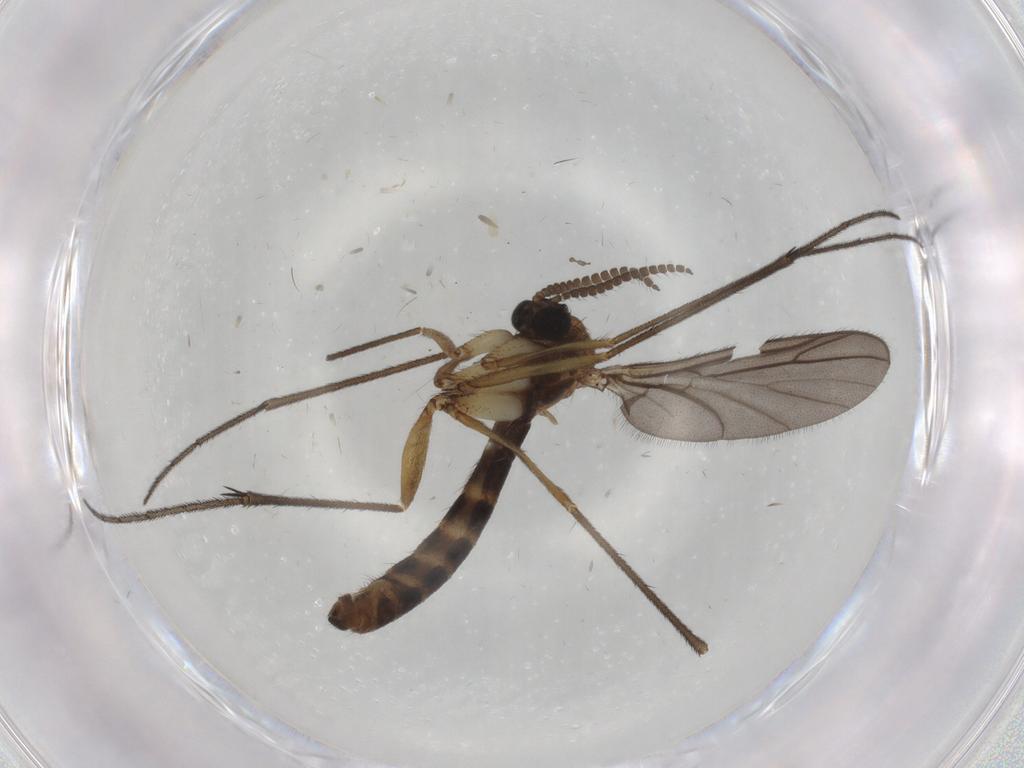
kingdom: Animalia
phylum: Arthropoda
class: Insecta
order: Diptera
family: Ditomyiidae
